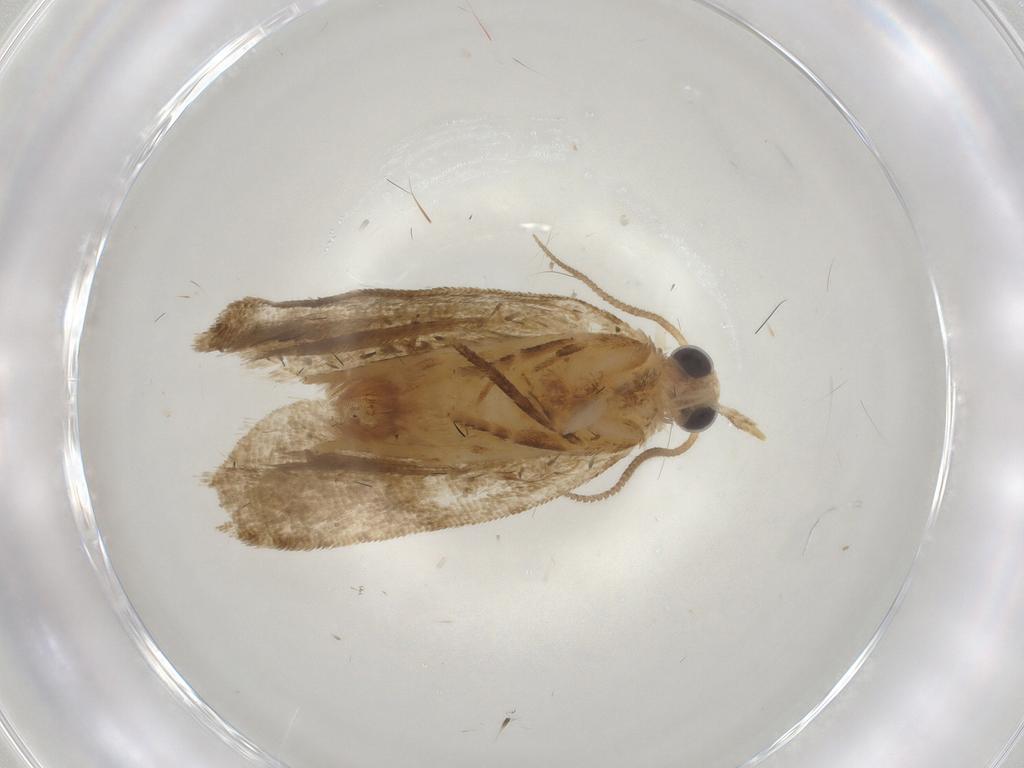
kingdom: Animalia
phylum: Arthropoda
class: Insecta
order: Lepidoptera
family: Tortricidae
